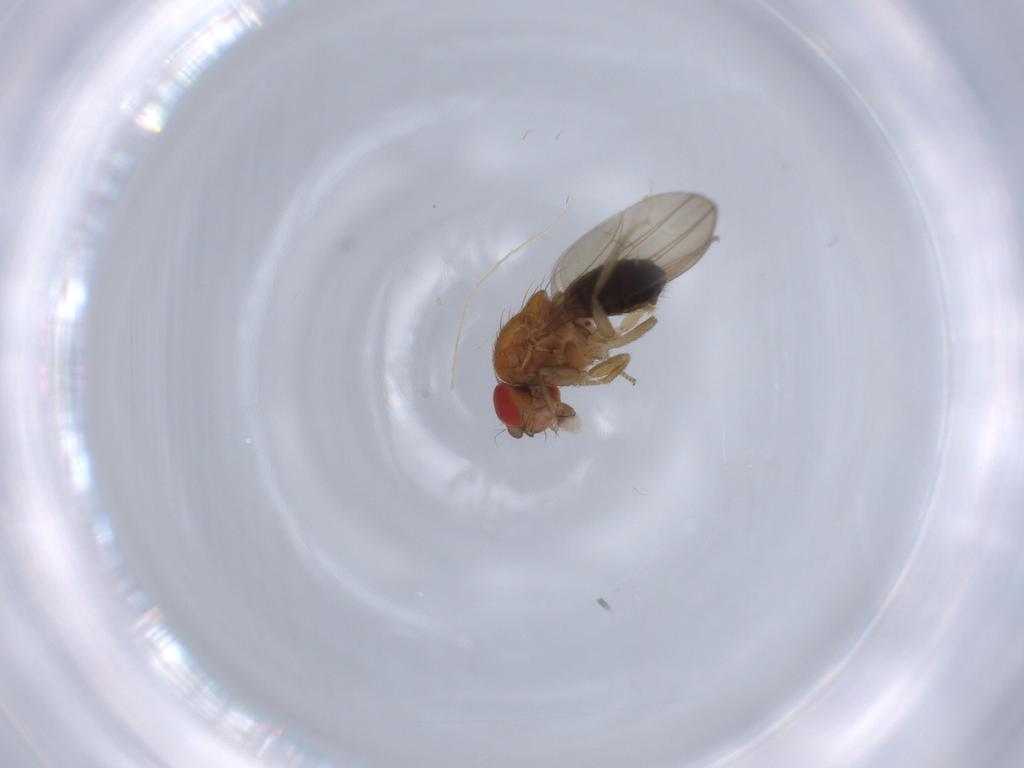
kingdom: Animalia
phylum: Arthropoda
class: Insecta
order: Diptera
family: Drosophilidae
